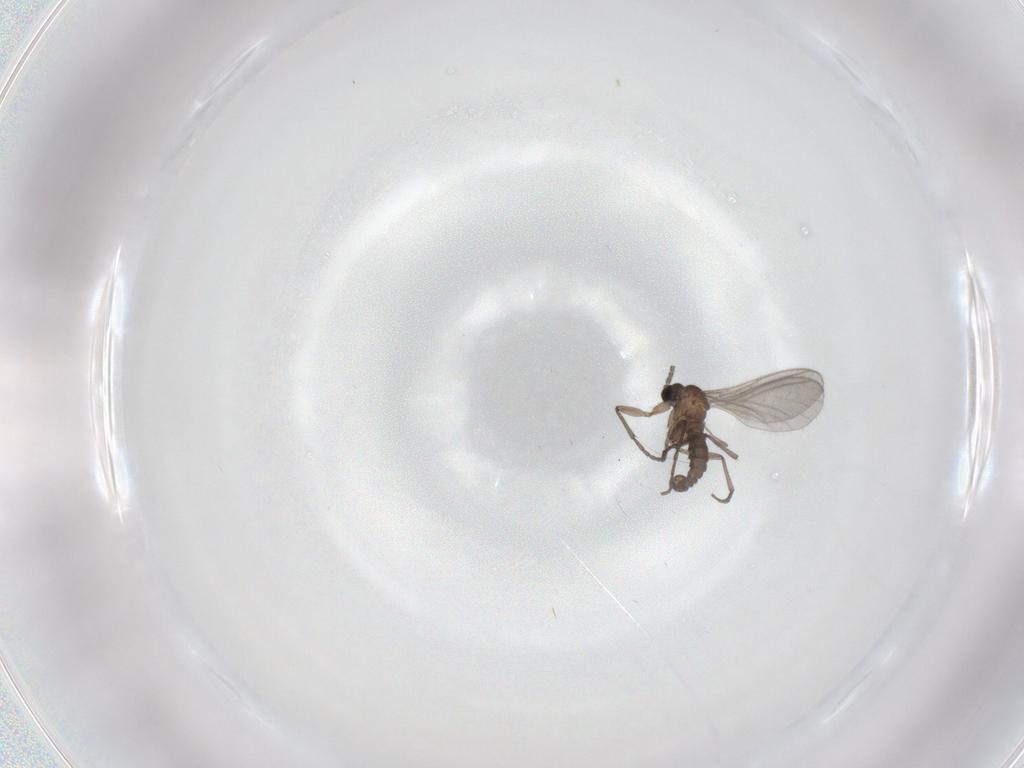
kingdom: Animalia
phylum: Arthropoda
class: Insecta
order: Diptera
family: Sciaridae
